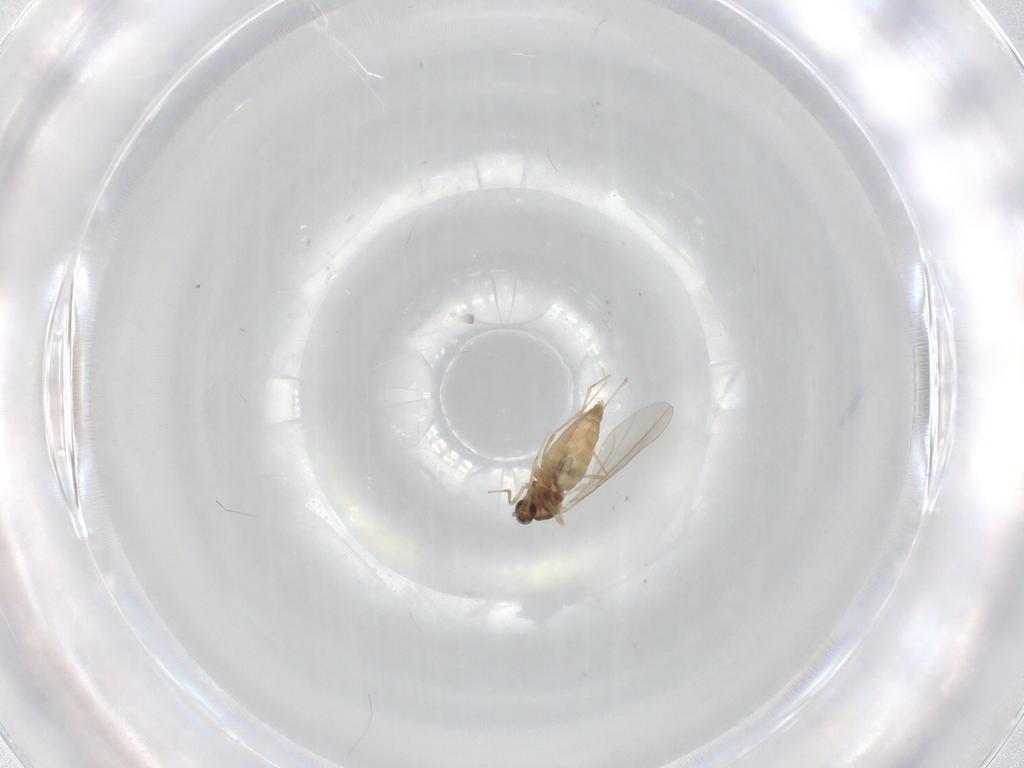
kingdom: Animalia
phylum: Arthropoda
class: Insecta
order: Diptera
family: Cecidomyiidae
